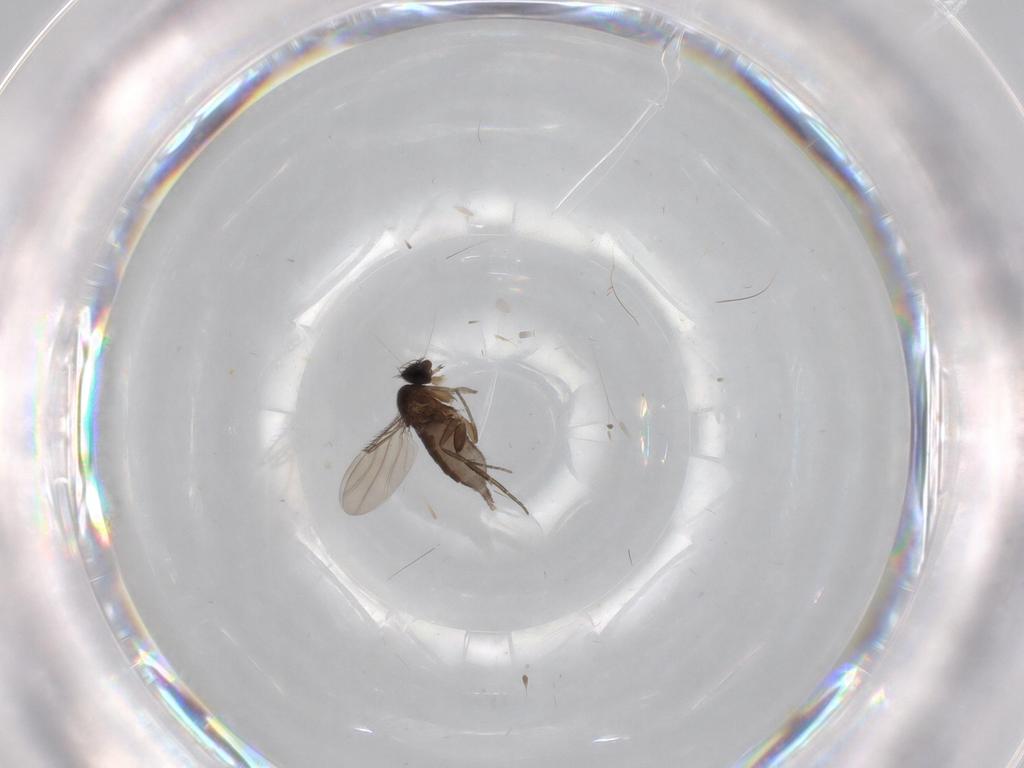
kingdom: Animalia
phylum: Arthropoda
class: Insecta
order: Diptera
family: Phoridae
